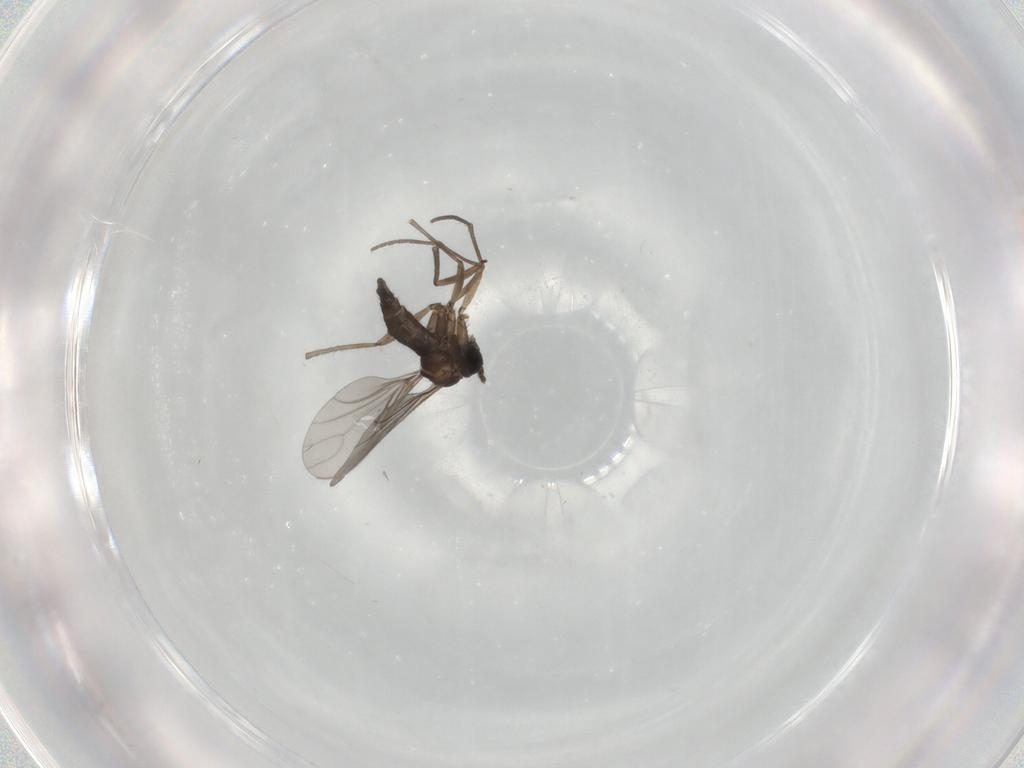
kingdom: Animalia
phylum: Arthropoda
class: Insecta
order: Diptera
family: Sciaridae
